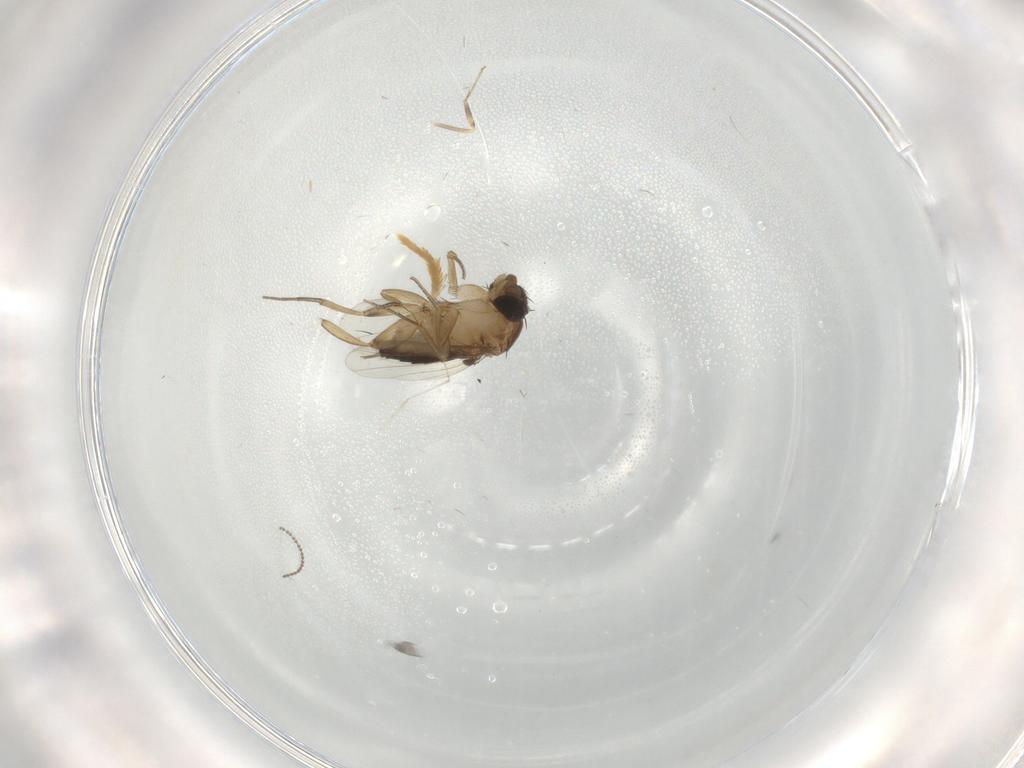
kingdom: Animalia
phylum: Arthropoda
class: Insecta
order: Diptera
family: Phoridae
